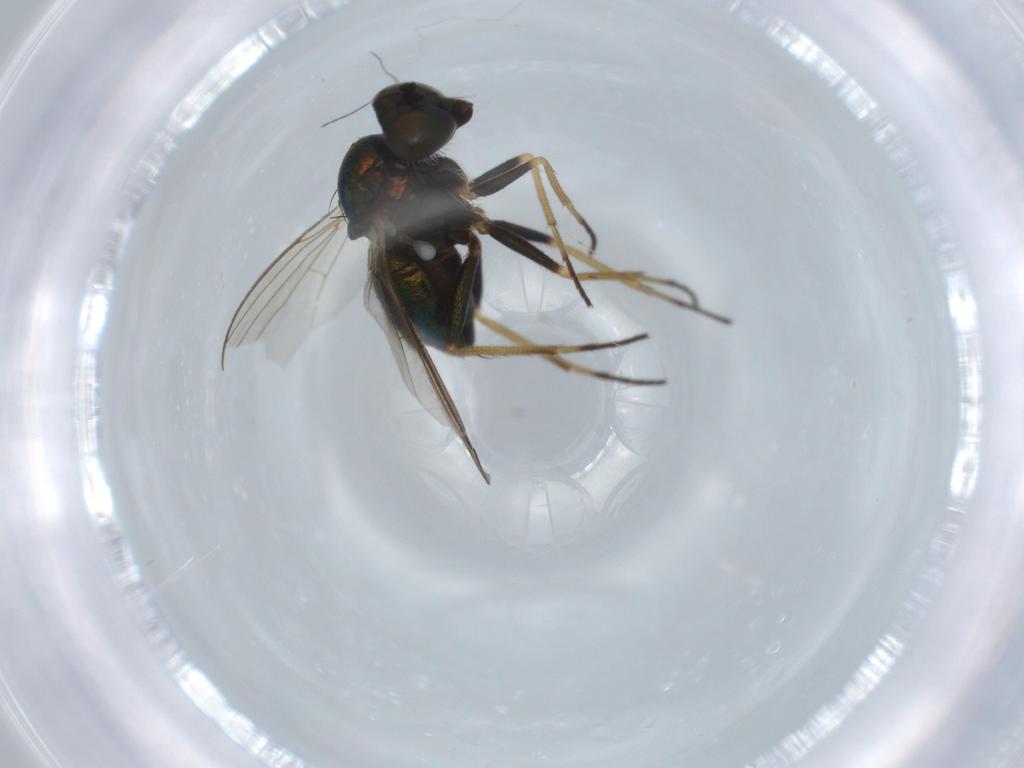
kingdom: Animalia
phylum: Arthropoda
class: Insecta
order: Diptera
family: Dolichopodidae
